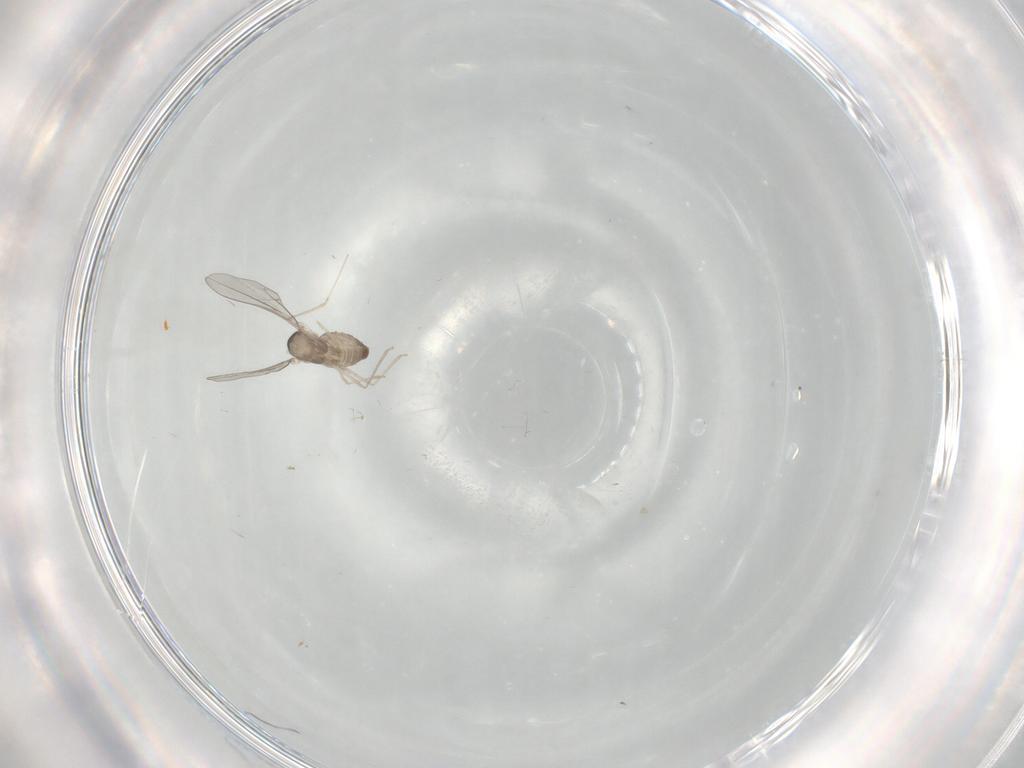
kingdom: Animalia
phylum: Arthropoda
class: Insecta
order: Diptera
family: Cecidomyiidae
